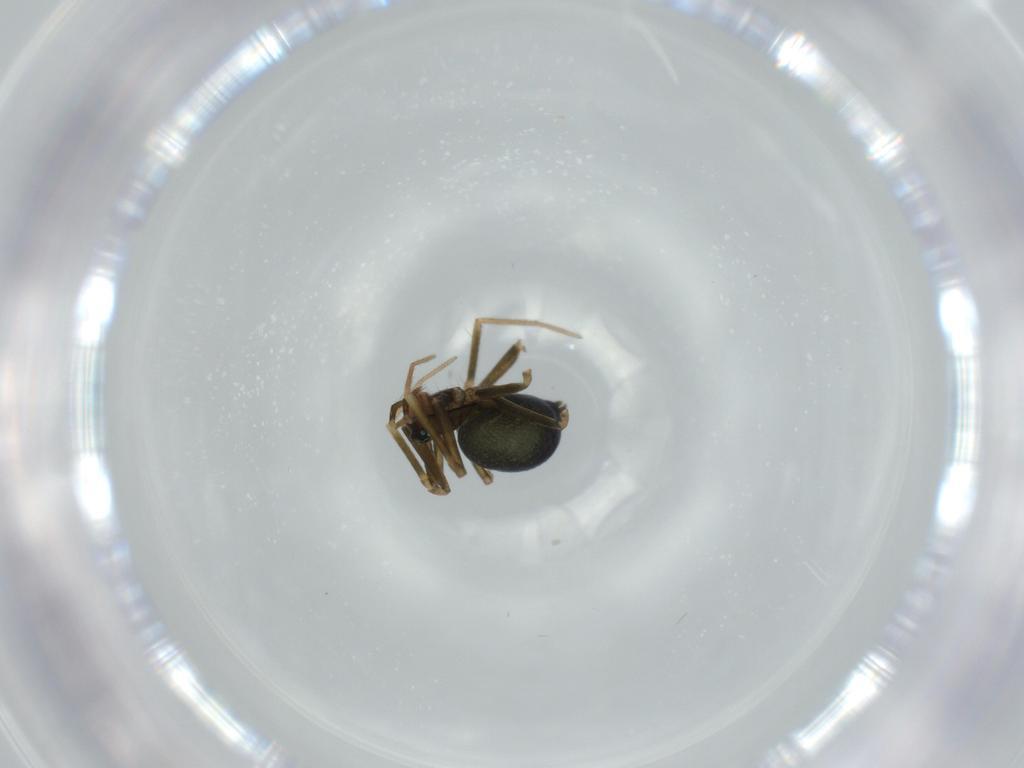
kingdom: Animalia
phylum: Arthropoda
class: Arachnida
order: Araneae
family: Linyphiidae
